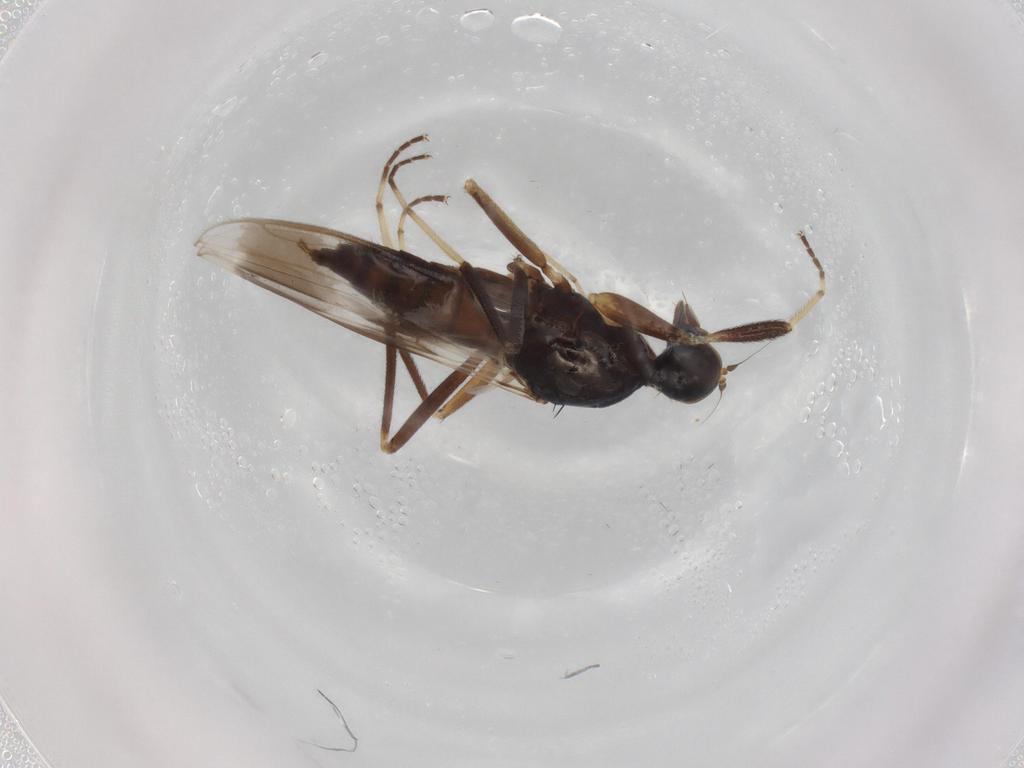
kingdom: Animalia
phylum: Arthropoda
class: Insecta
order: Diptera
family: Hybotidae
